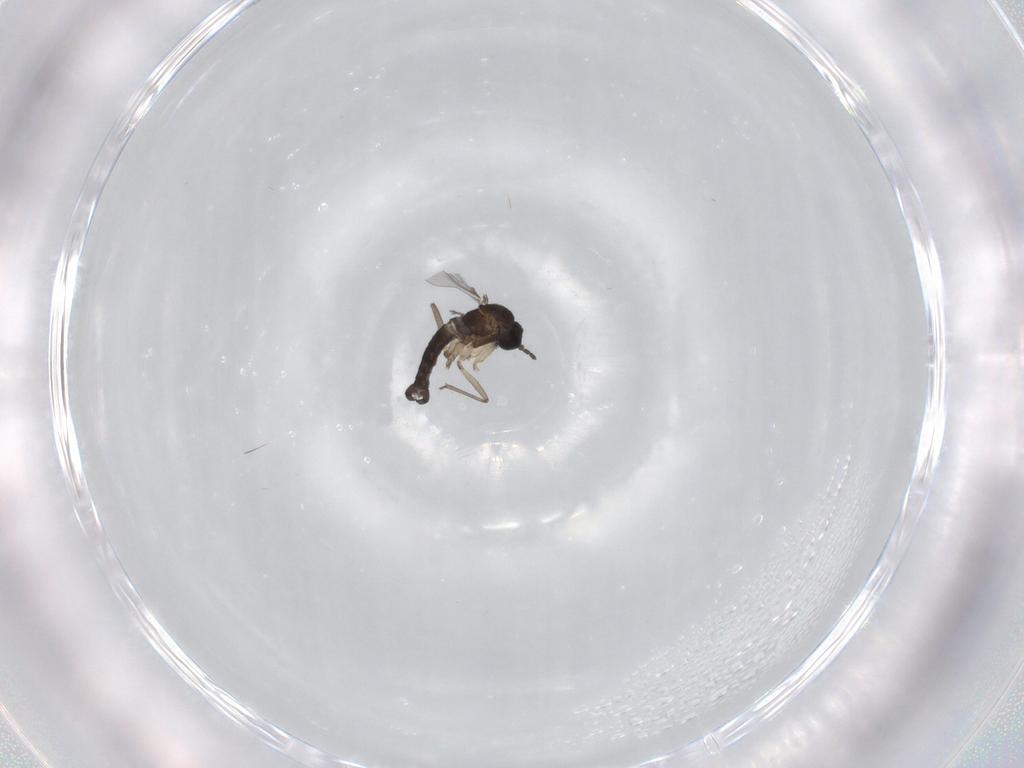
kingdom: Animalia
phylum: Arthropoda
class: Insecta
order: Diptera
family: Sciaridae
